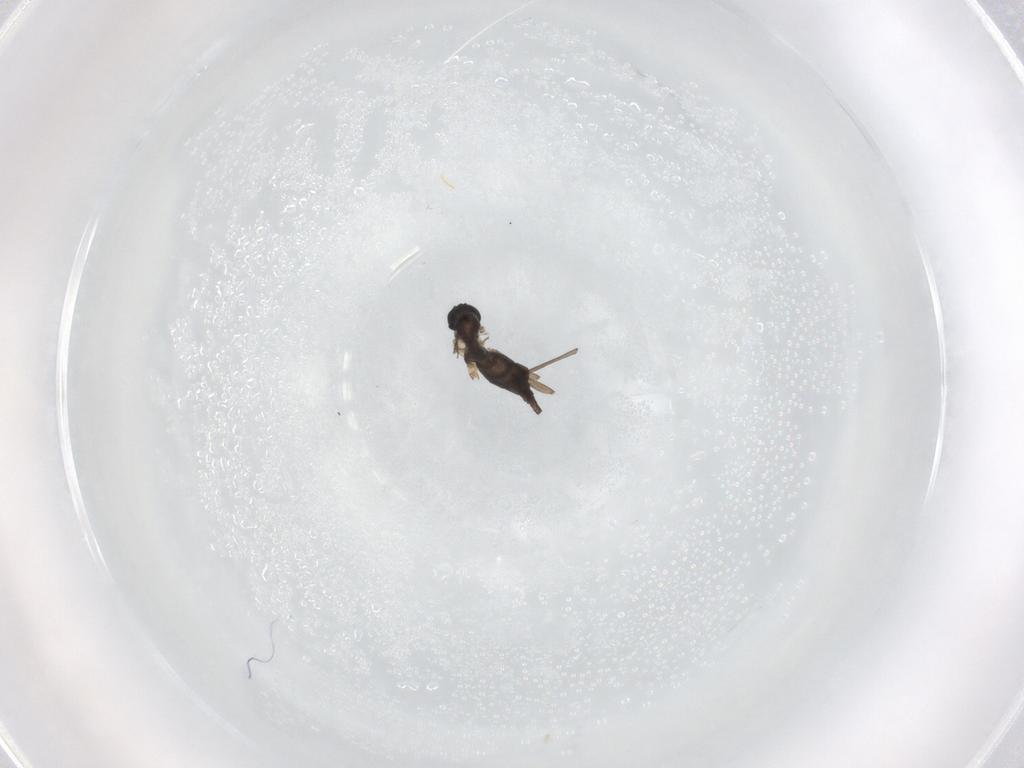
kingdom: Animalia
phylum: Arthropoda
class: Insecta
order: Diptera
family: Sciaridae
